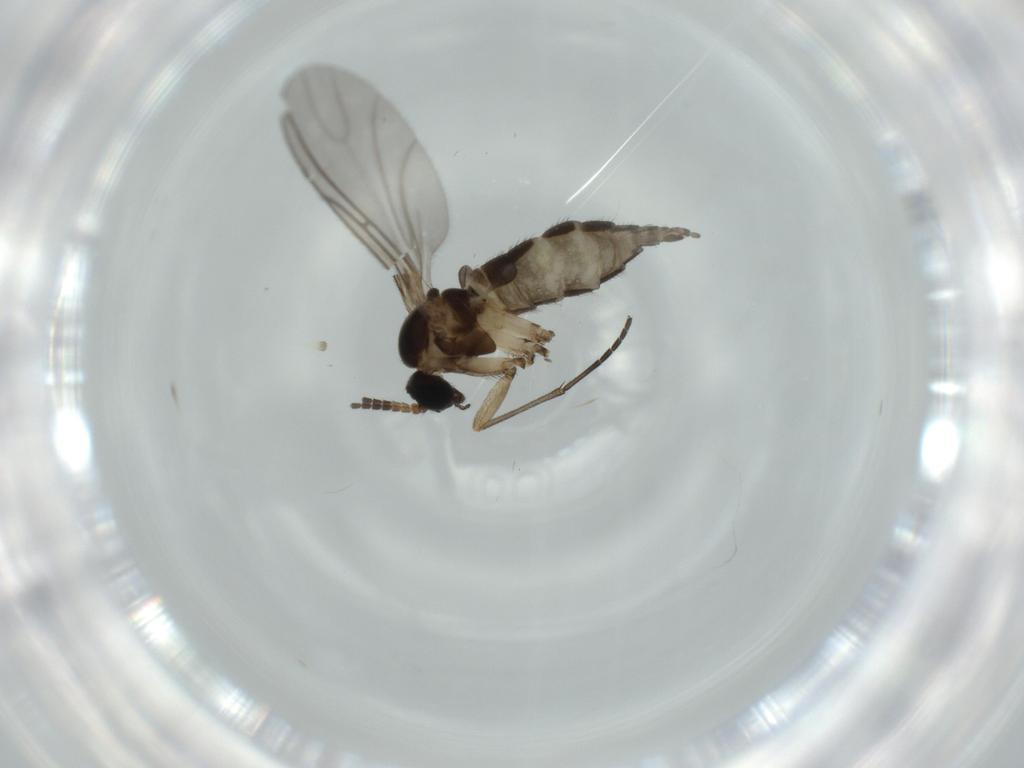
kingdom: Animalia
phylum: Arthropoda
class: Insecta
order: Diptera
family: Sciaridae
